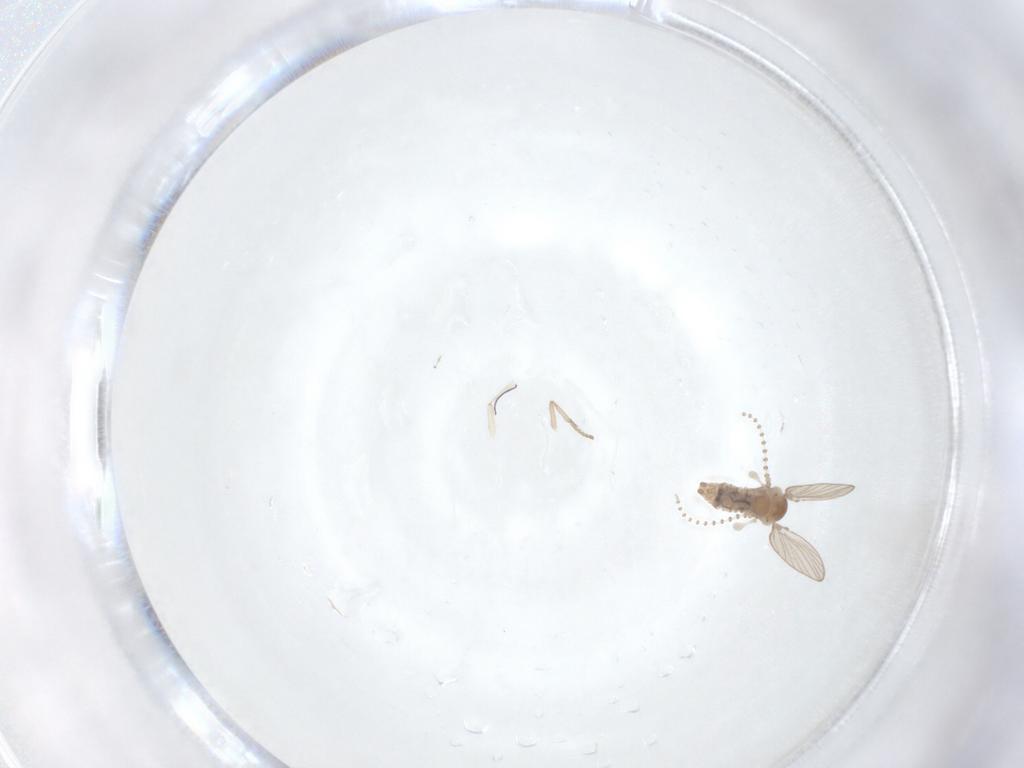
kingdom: Animalia
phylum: Arthropoda
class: Insecta
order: Diptera
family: Psychodidae
